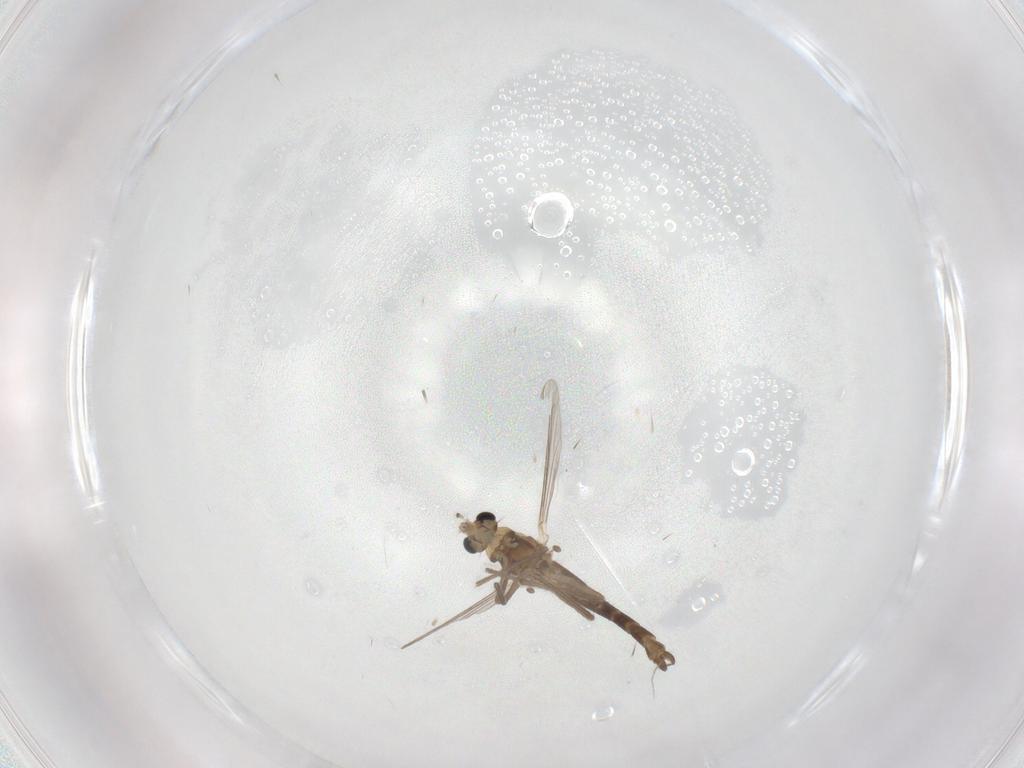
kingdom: Animalia
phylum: Arthropoda
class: Insecta
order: Diptera
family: Chironomidae
